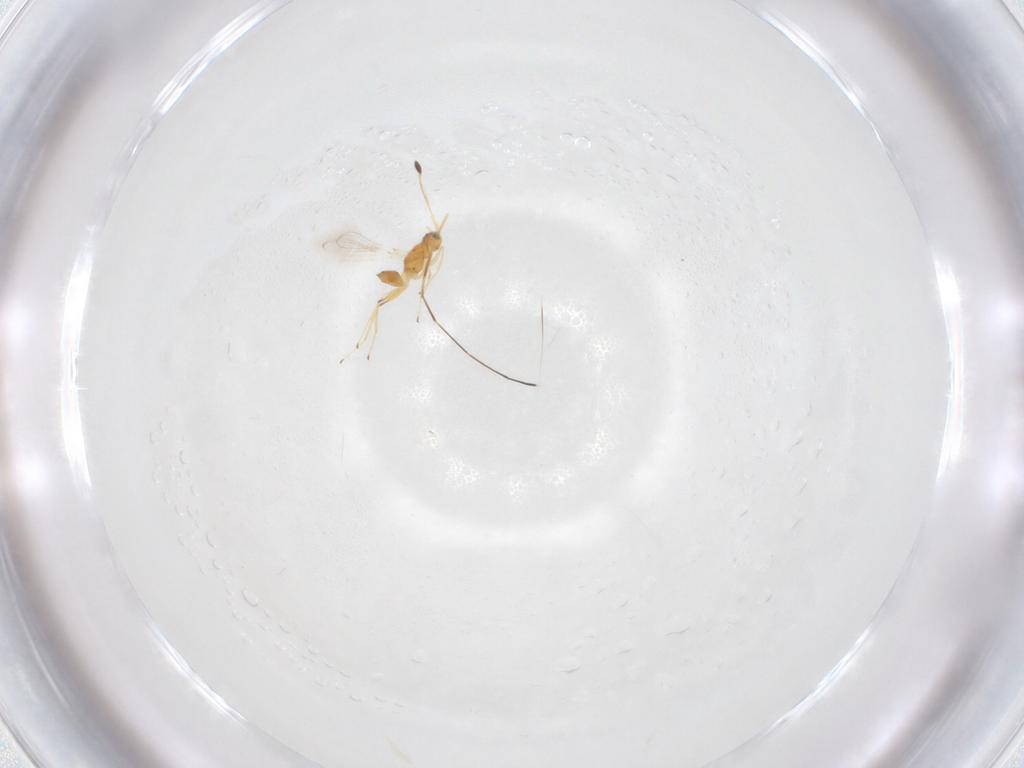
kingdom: Animalia
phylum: Arthropoda
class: Insecta
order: Hymenoptera
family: Mymaridae
